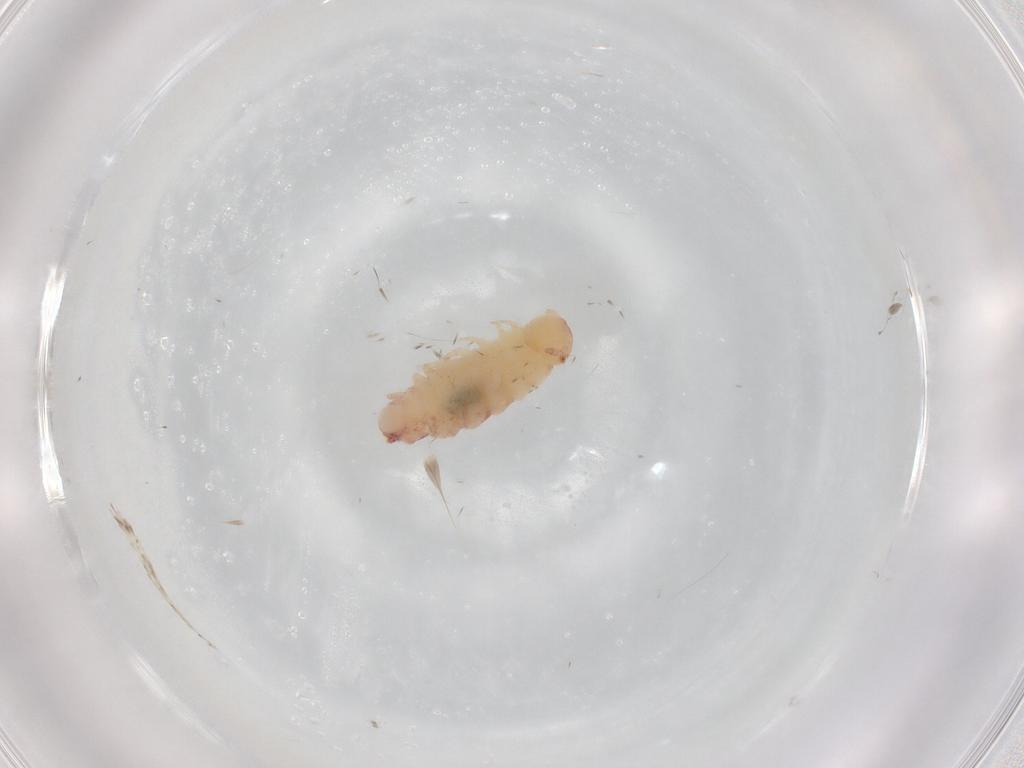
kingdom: Animalia
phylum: Arthropoda
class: Diplopoda
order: Polyxenida
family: Polyxenidae
